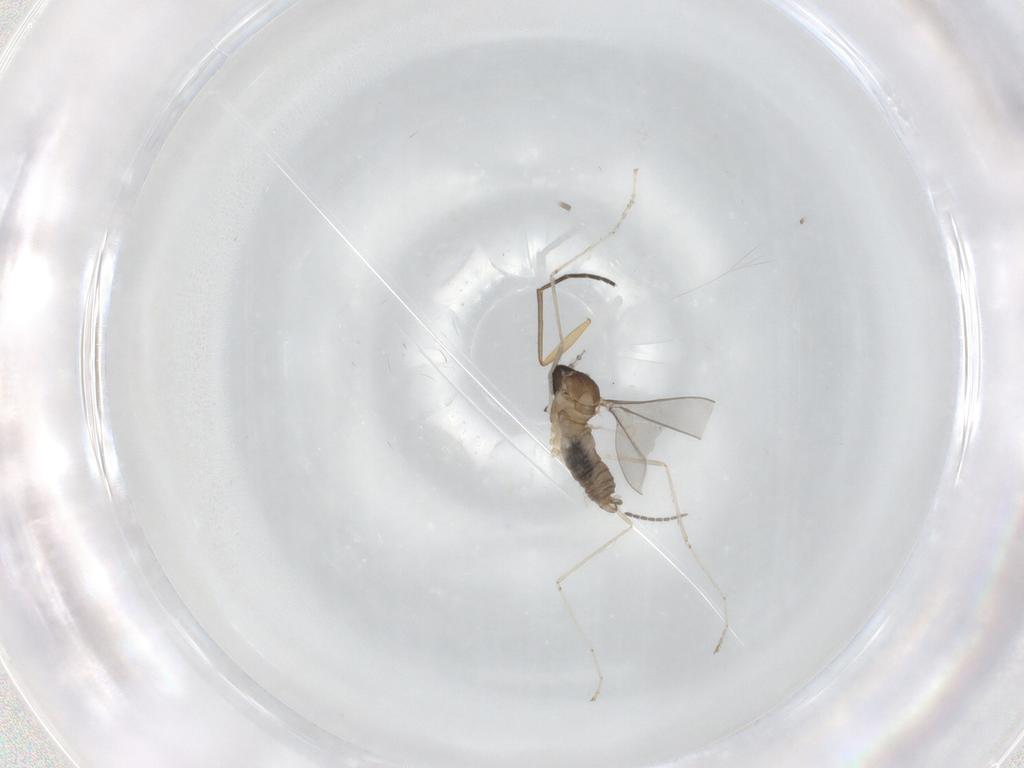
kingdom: Animalia
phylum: Arthropoda
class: Insecta
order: Diptera
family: Cecidomyiidae
